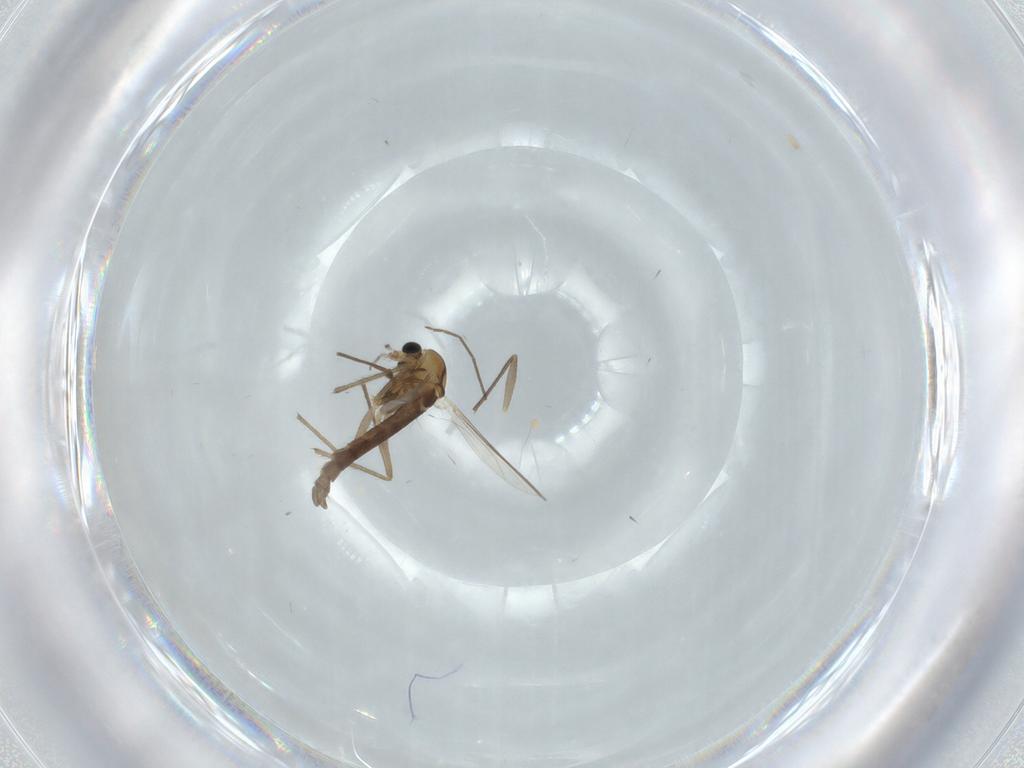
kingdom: Animalia
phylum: Arthropoda
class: Insecta
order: Diptera
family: Chironomidae
